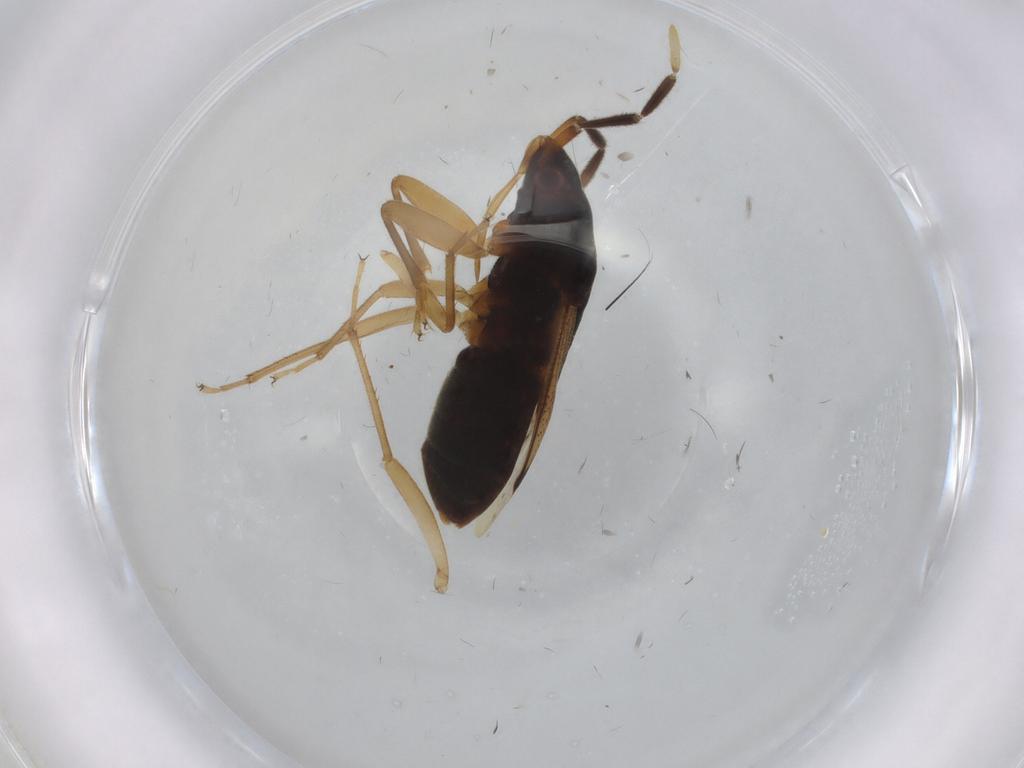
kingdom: Animalia
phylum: Arthropoda
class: Insecta
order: Hemiptera
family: Rhyparochromidae
